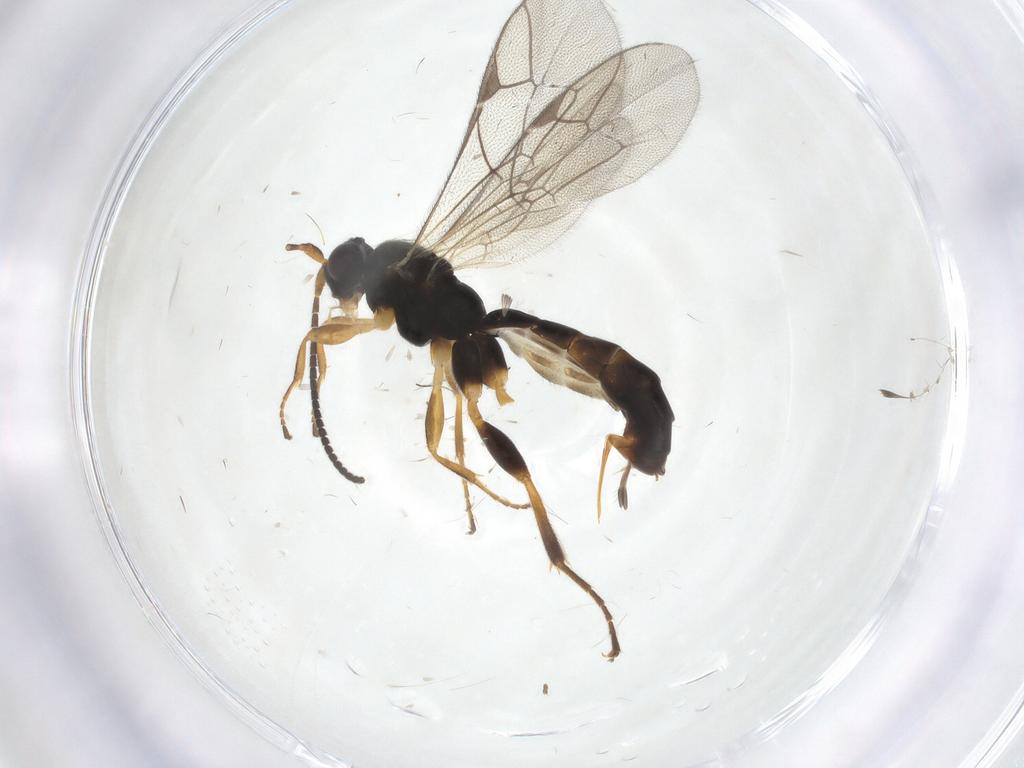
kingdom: Animalia
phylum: Arthropoda
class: Insecta
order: Hymenoptera
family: Ichneumonidae
